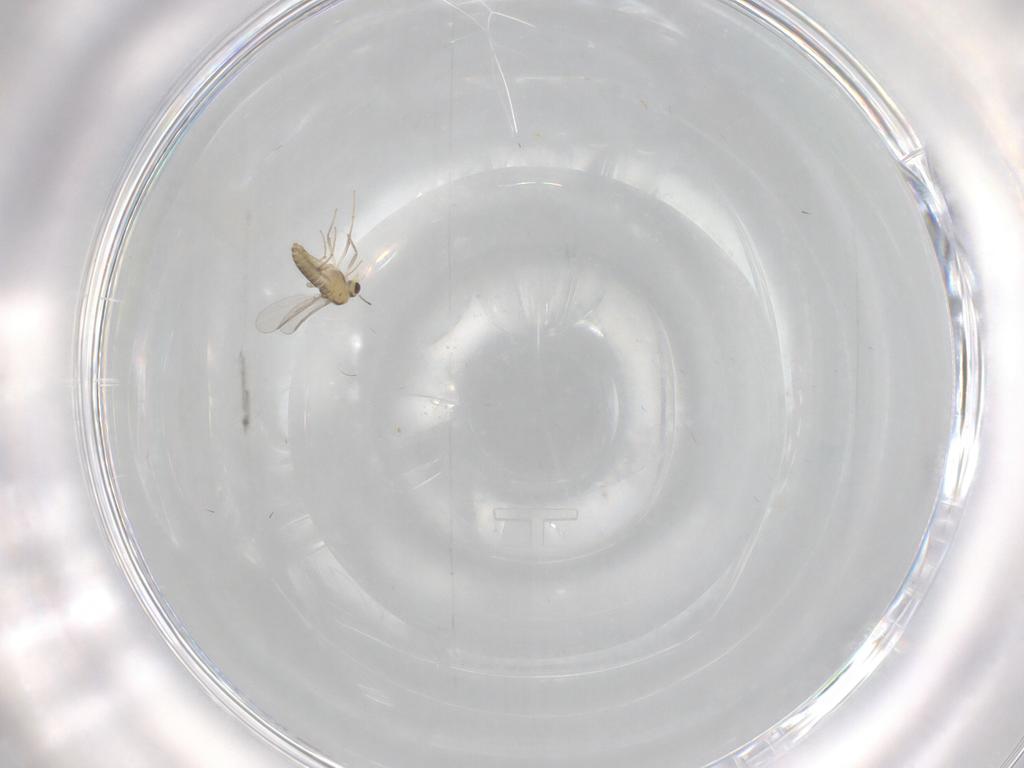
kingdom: Animalia
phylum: Arthropoda
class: Insecta
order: Diptera
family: Chironomidae
